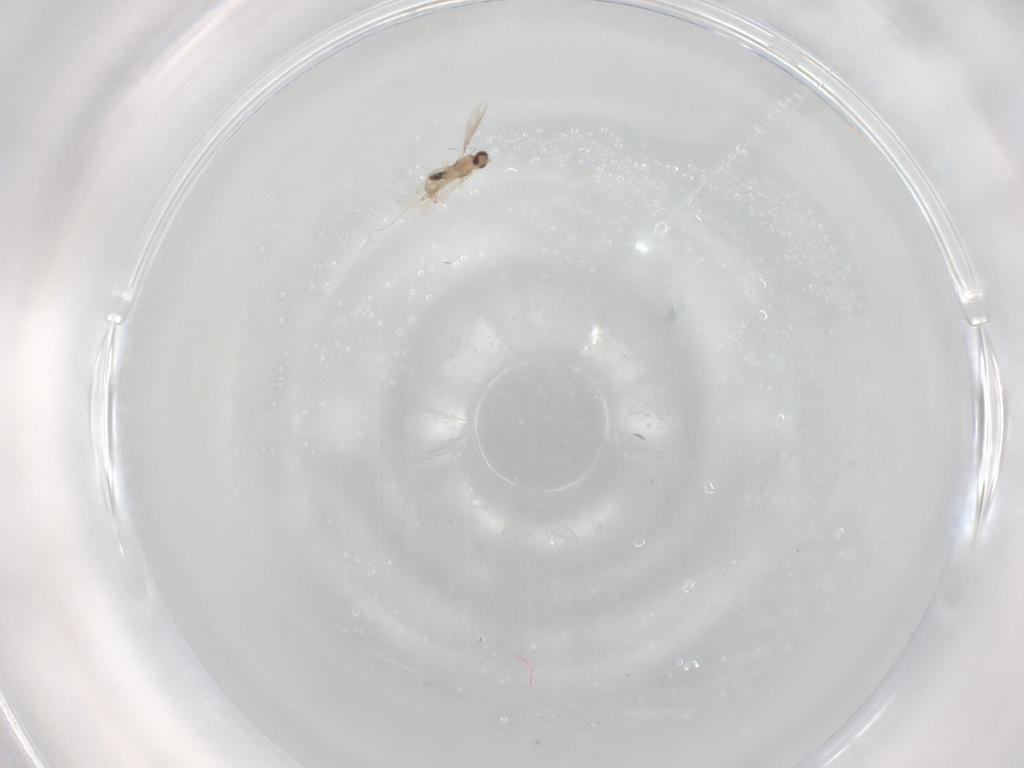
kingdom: Animalia
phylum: Arthropoda
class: Insecta
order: Diptera
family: Cecidomyiidae
